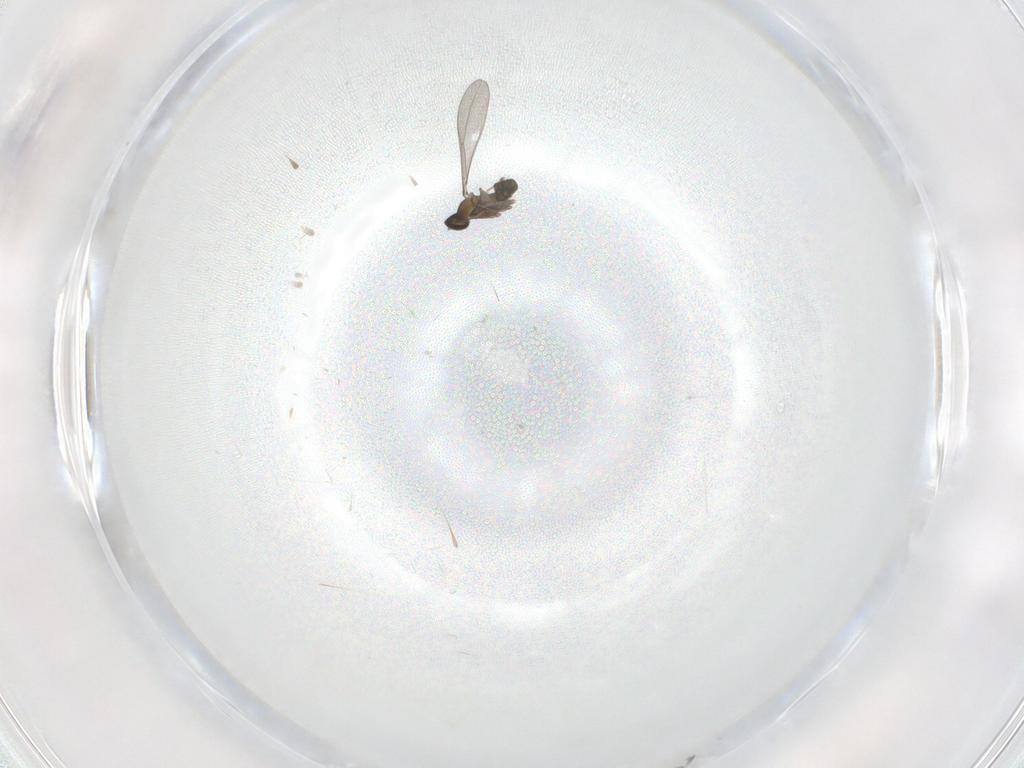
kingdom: Animalia
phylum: Arthropoda
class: Insecta
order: Diptera
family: Cecidomyiidae
